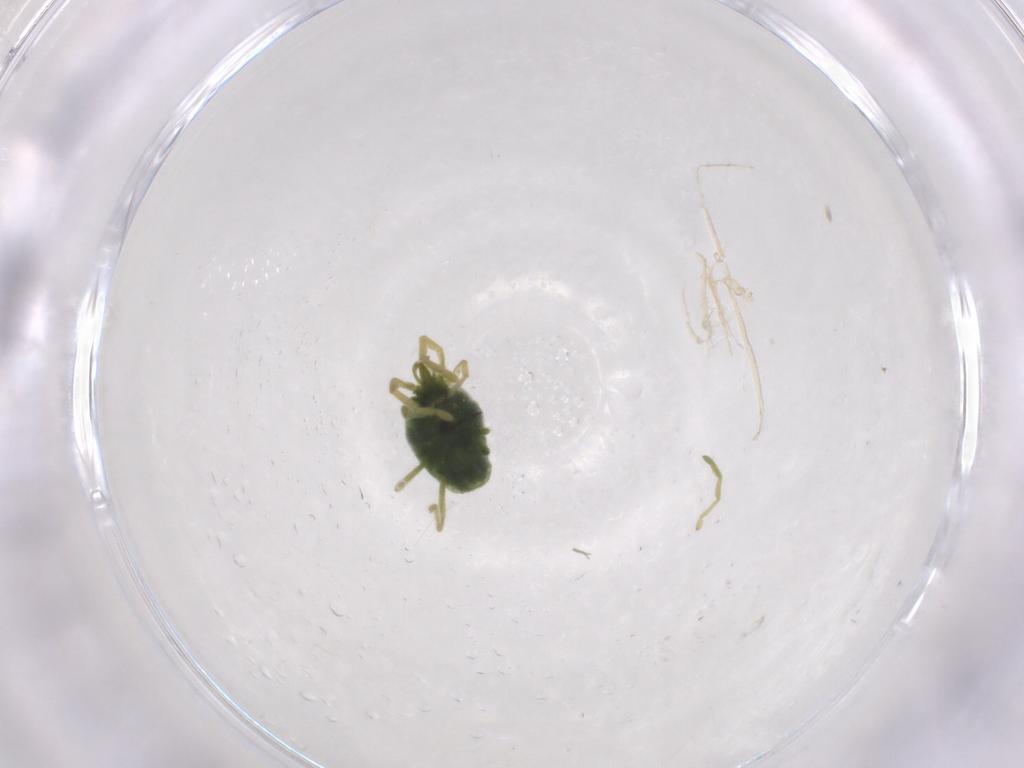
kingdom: Animalia
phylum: Arthropoda
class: Arachnida
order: Trombidiformes
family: Erythraeidae
